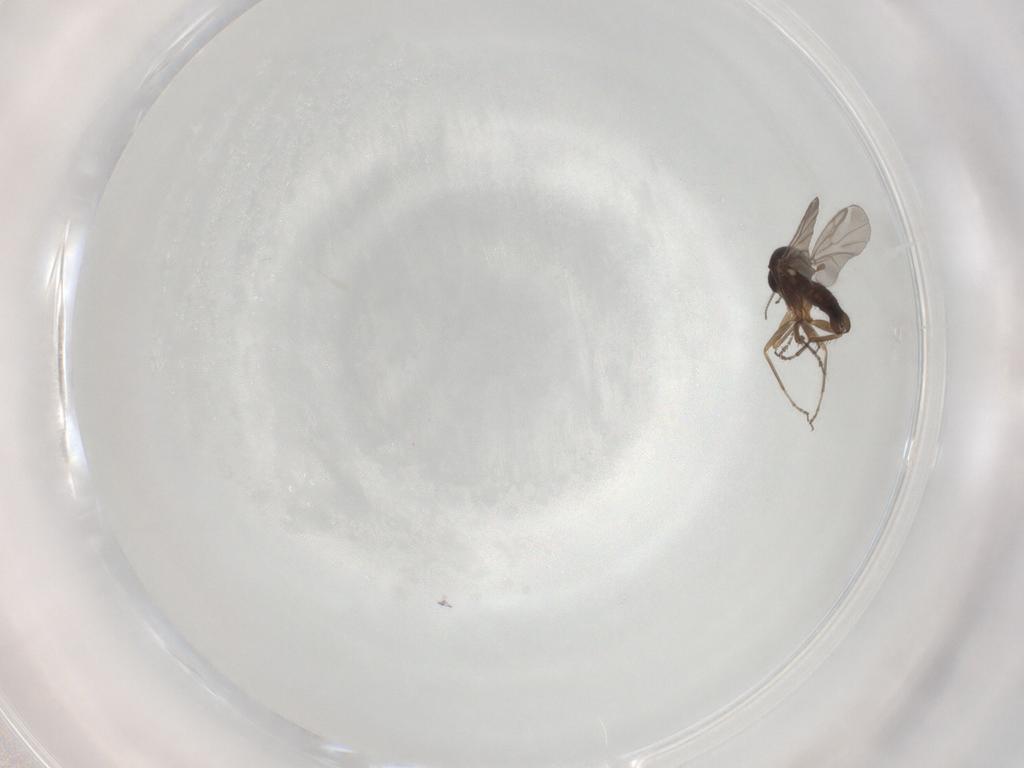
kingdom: Animalia
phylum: Arthropoda
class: Insecta
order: Diptera
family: Ceratopogonidae
